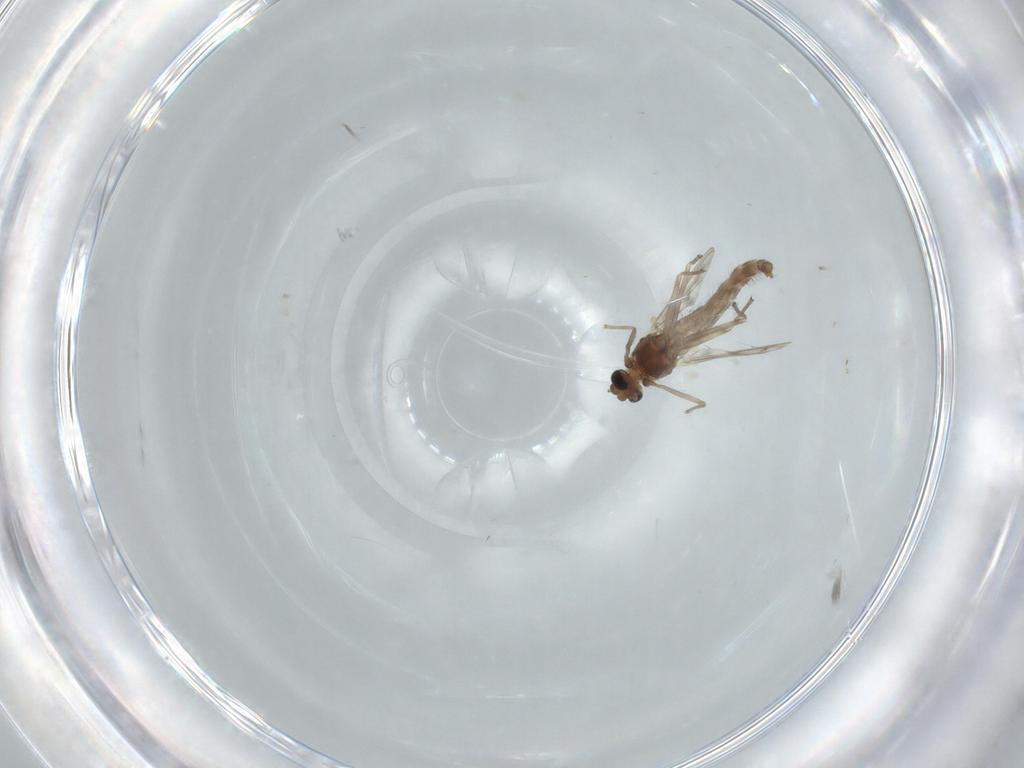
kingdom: Animalia
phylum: Arthropoda
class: Insecta
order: Diptera
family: Chironomidae
